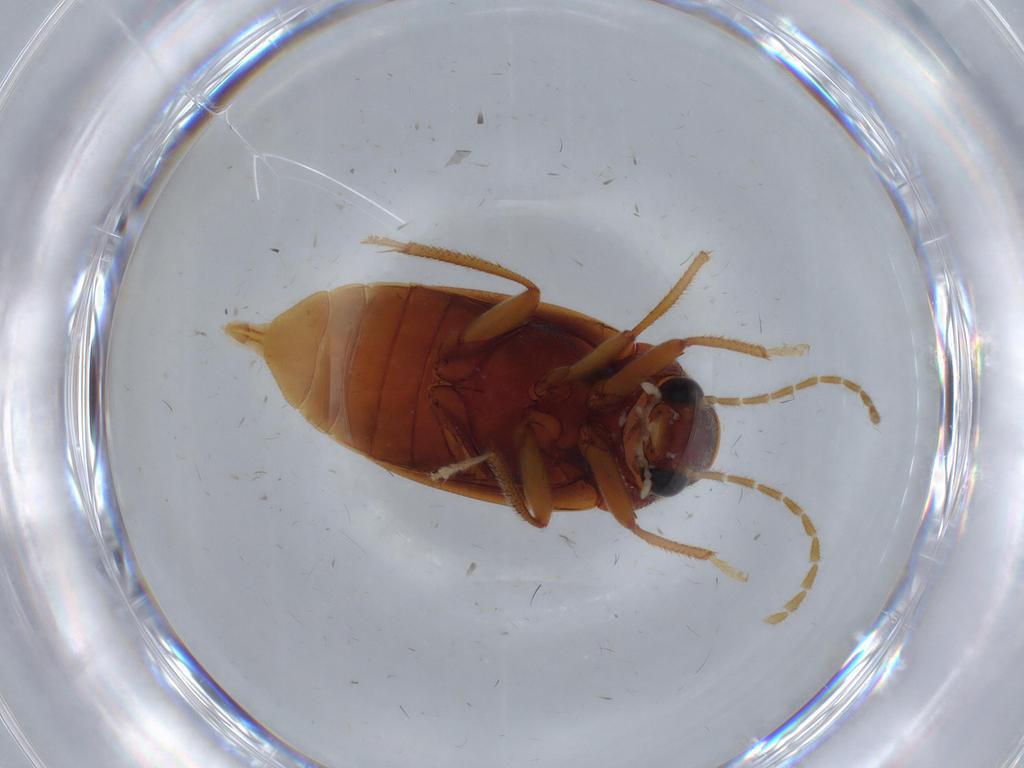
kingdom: Animalia
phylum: Arthropoda
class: Insecta
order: Coleoptera
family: Ptilodactylidae
